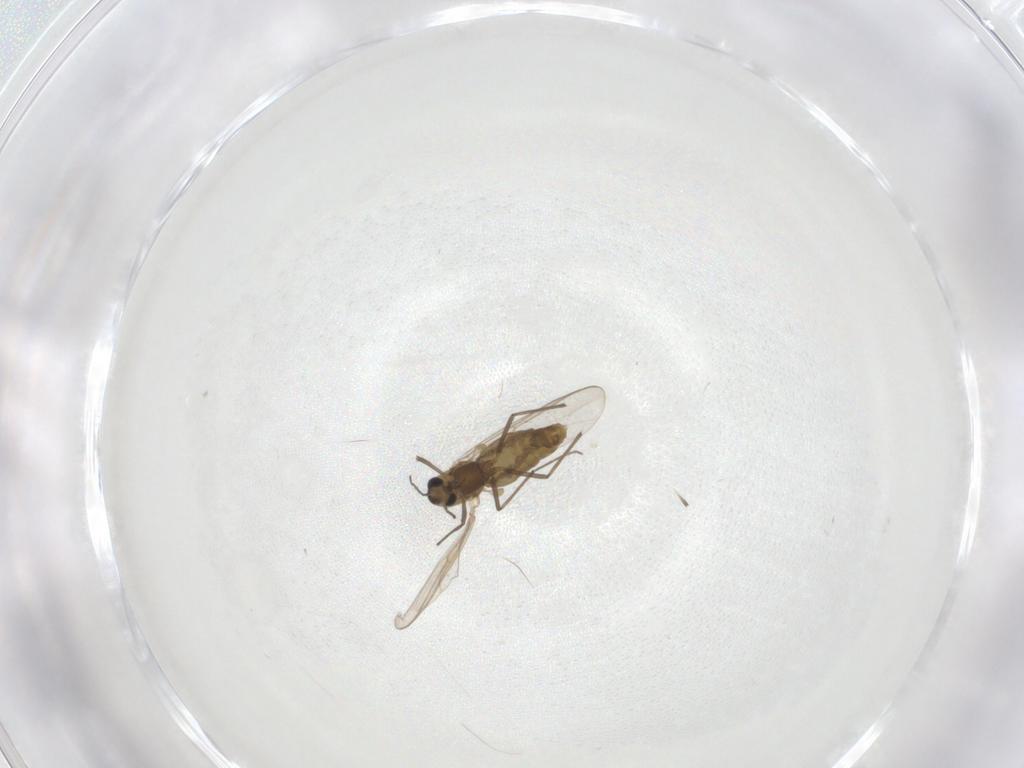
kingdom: Animalia
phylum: Arthropoda
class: Insecta
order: Diptera
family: Chironomidae
